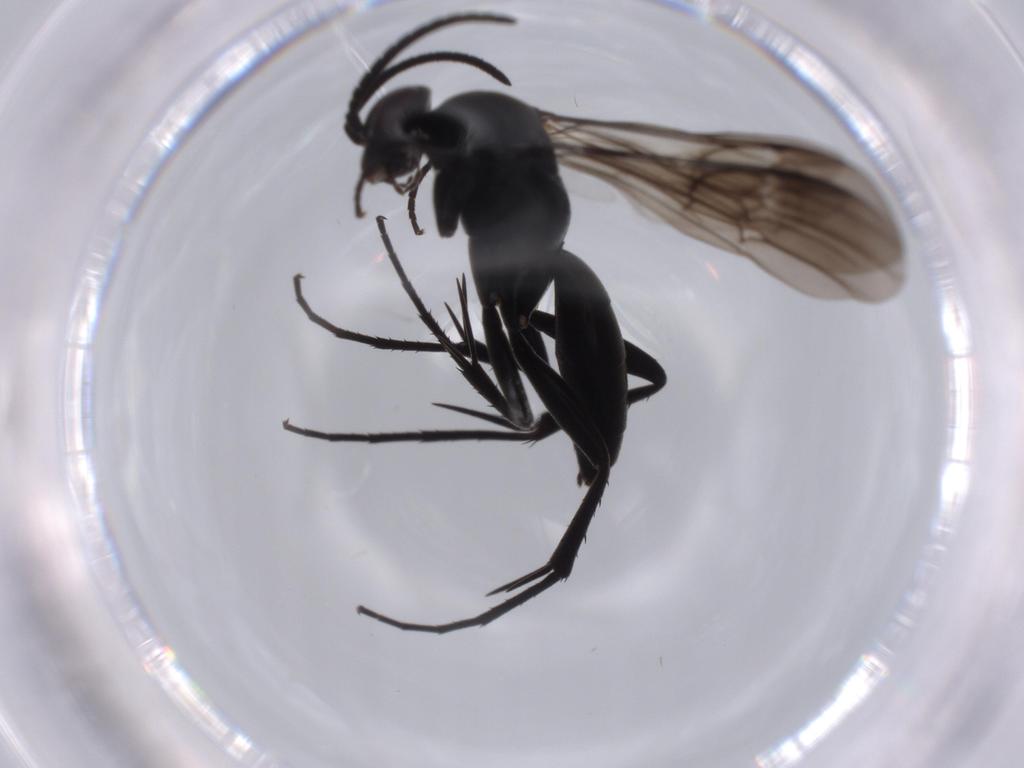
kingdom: Animalia
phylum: Arthropoda
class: Insecta
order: Hymenoptera
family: Pompilidae
